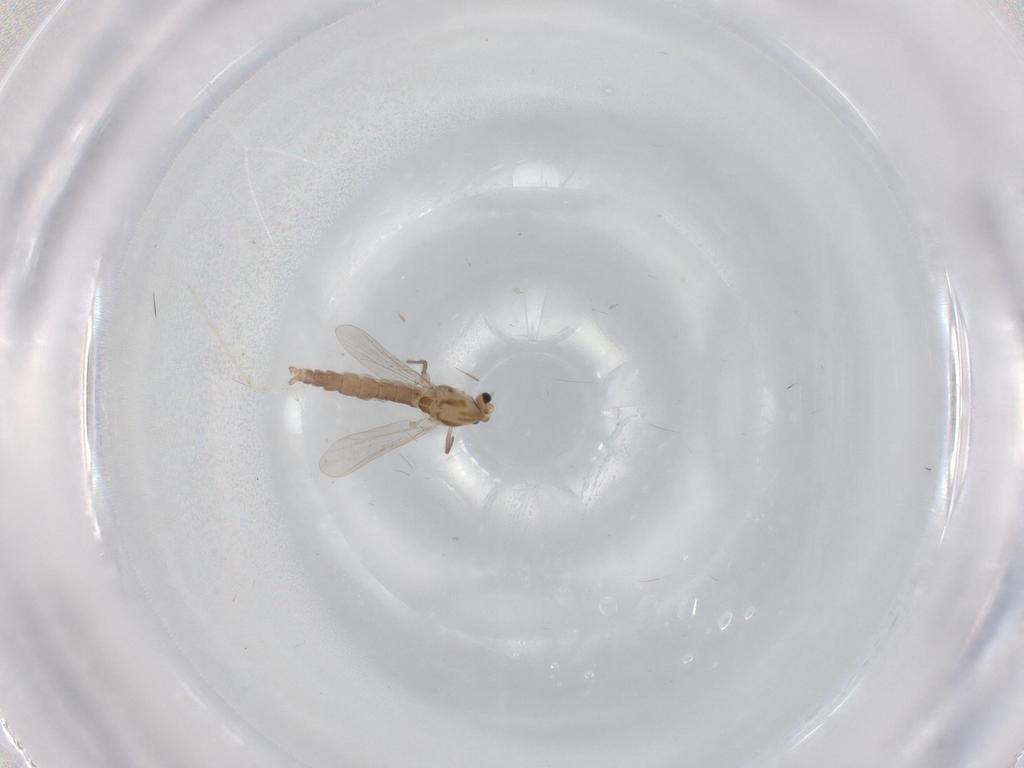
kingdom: Animalia
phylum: Arthropoda
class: Insecta
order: Diptera
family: Chironomidae
